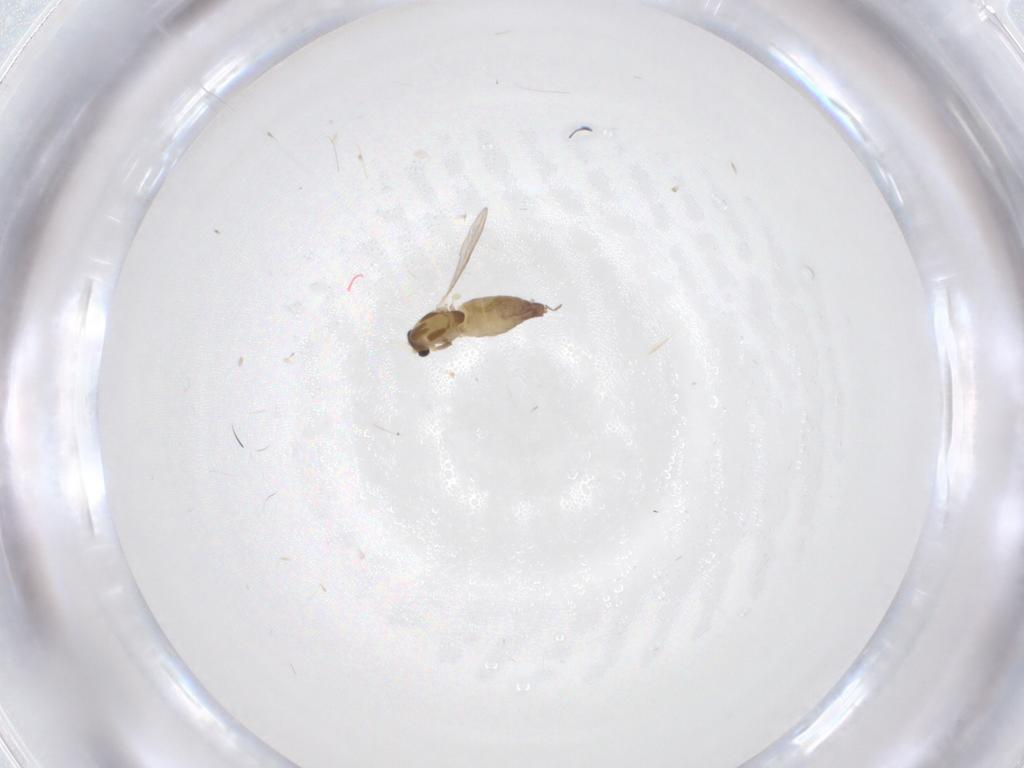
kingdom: Animalia
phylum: Arthropoda
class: Insecta
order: Diptera
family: Chironomidae
